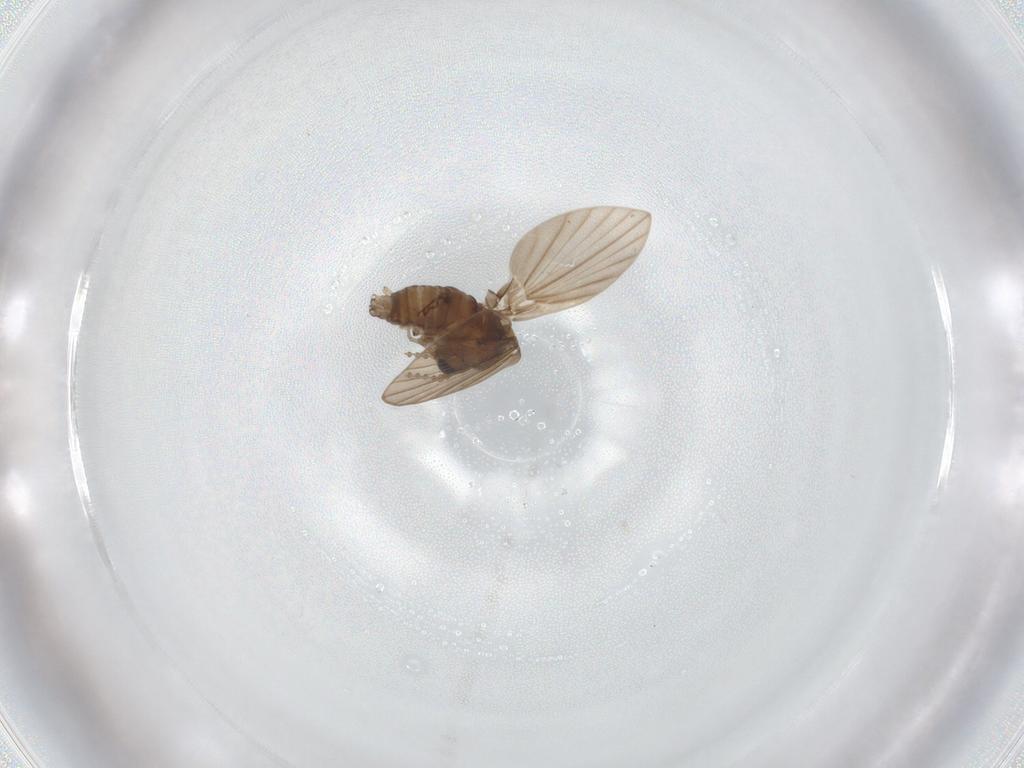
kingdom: Animalia
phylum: Arthropoda
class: Insecta
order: Diptera
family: Psychodidae
